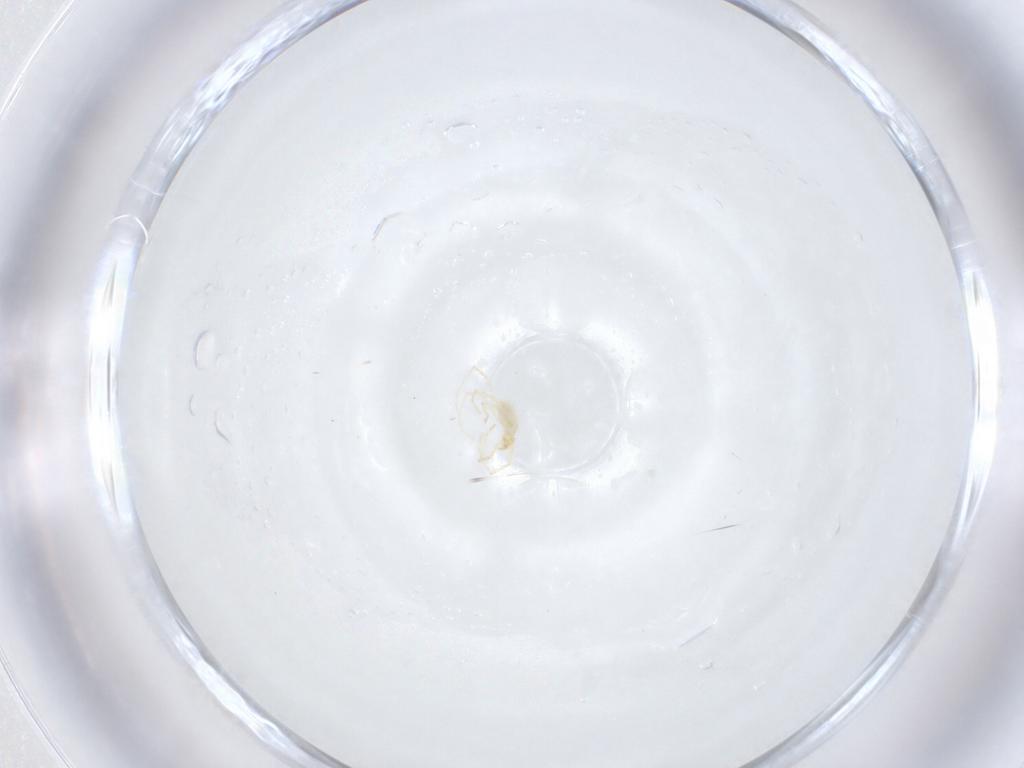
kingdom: Animalia
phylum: Arthropoda
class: Arachnida
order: Trombidiformes
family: Erythraeidae
